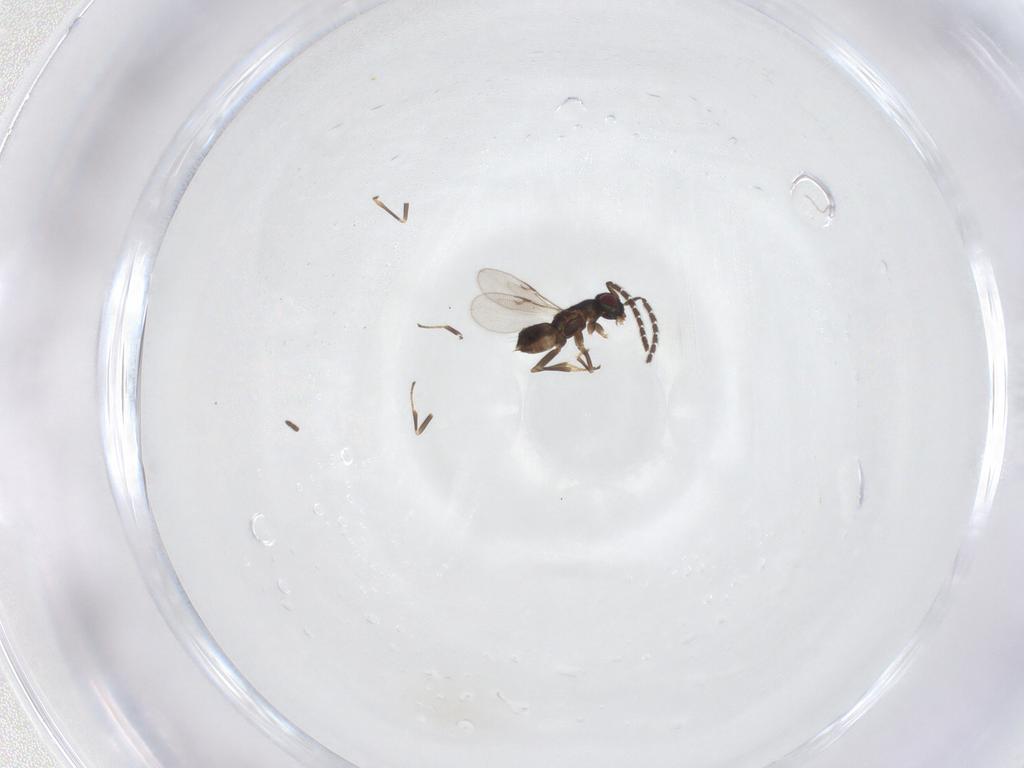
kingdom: Animalia
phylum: Arthropoda
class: Insecta
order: Hymenoptera
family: Encyrtidae
